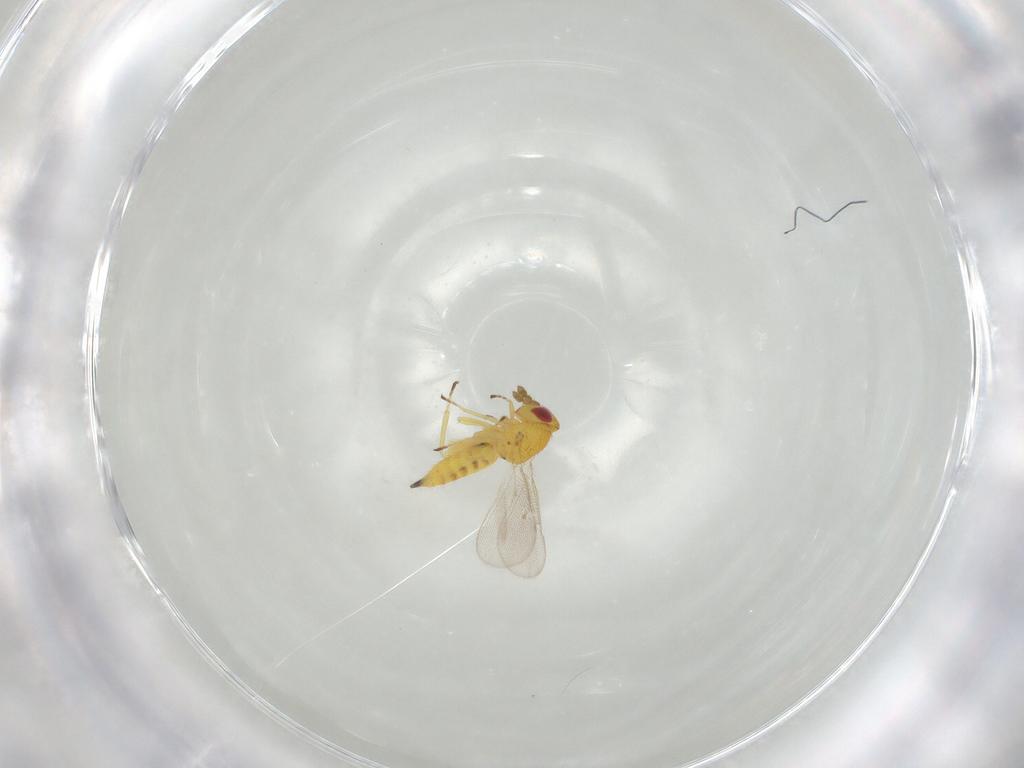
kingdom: Animalia
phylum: Arthropoda
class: Insecta
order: Hymenoptera
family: Eulophidae
